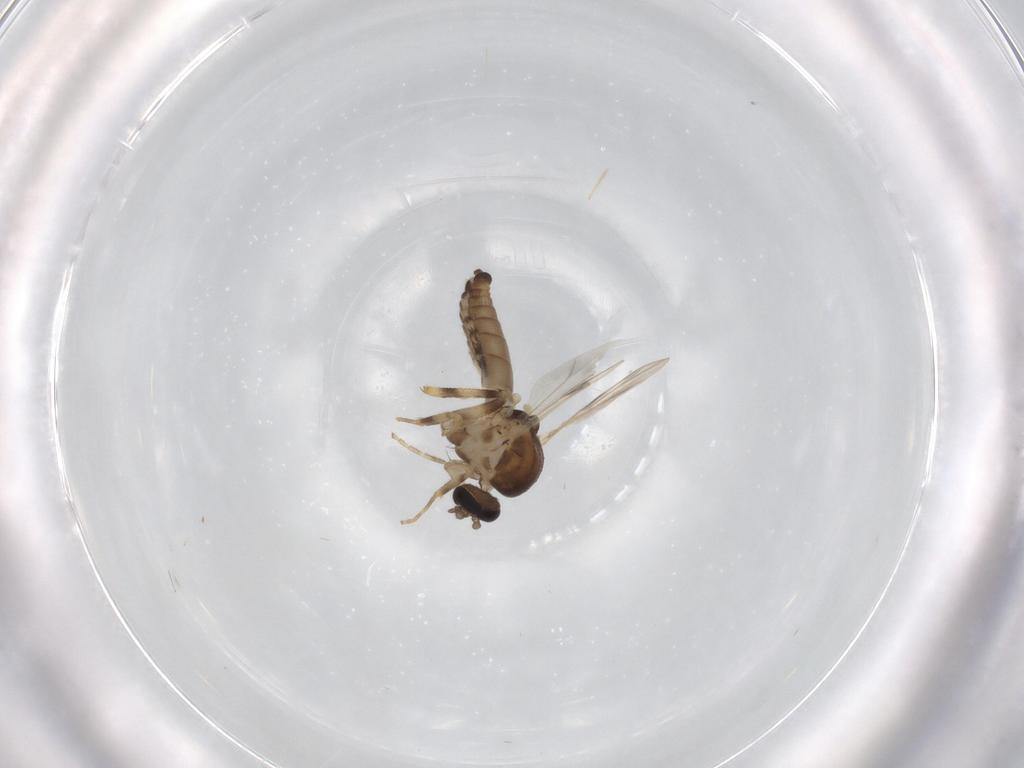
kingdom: Animalia
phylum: Arthropoda
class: Insecta
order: Diptera
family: Ceratopogonidae
